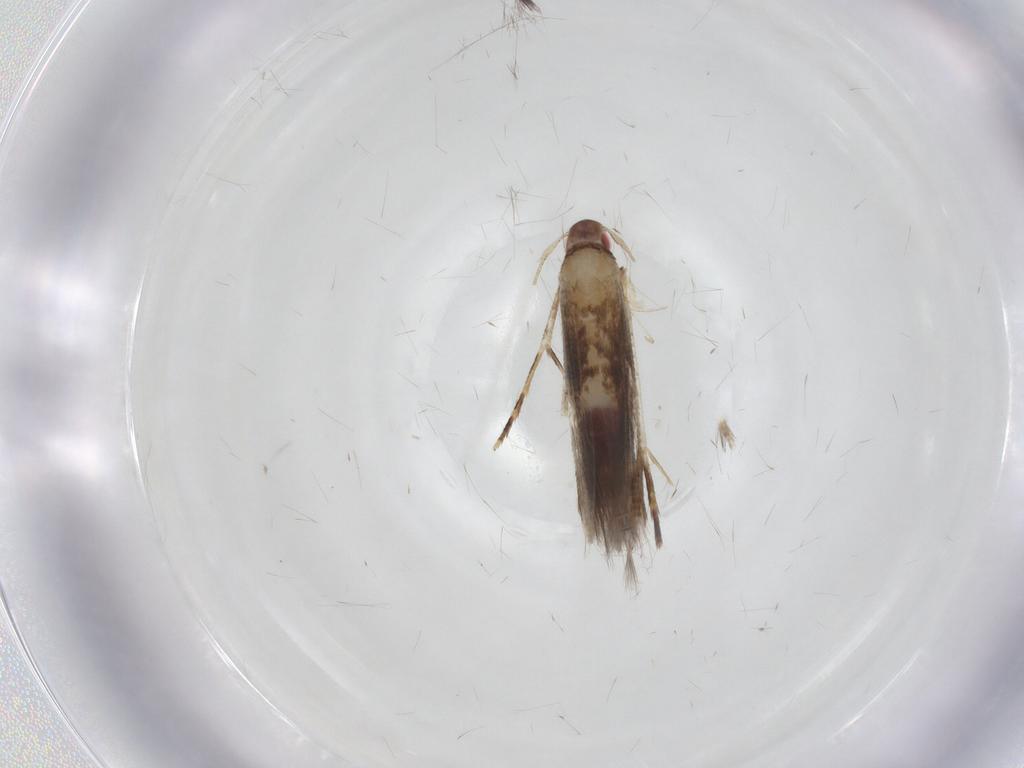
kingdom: Animalia
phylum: Arthropoda
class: Insecta
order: Lepidoptera
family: Cosmopterigidae
